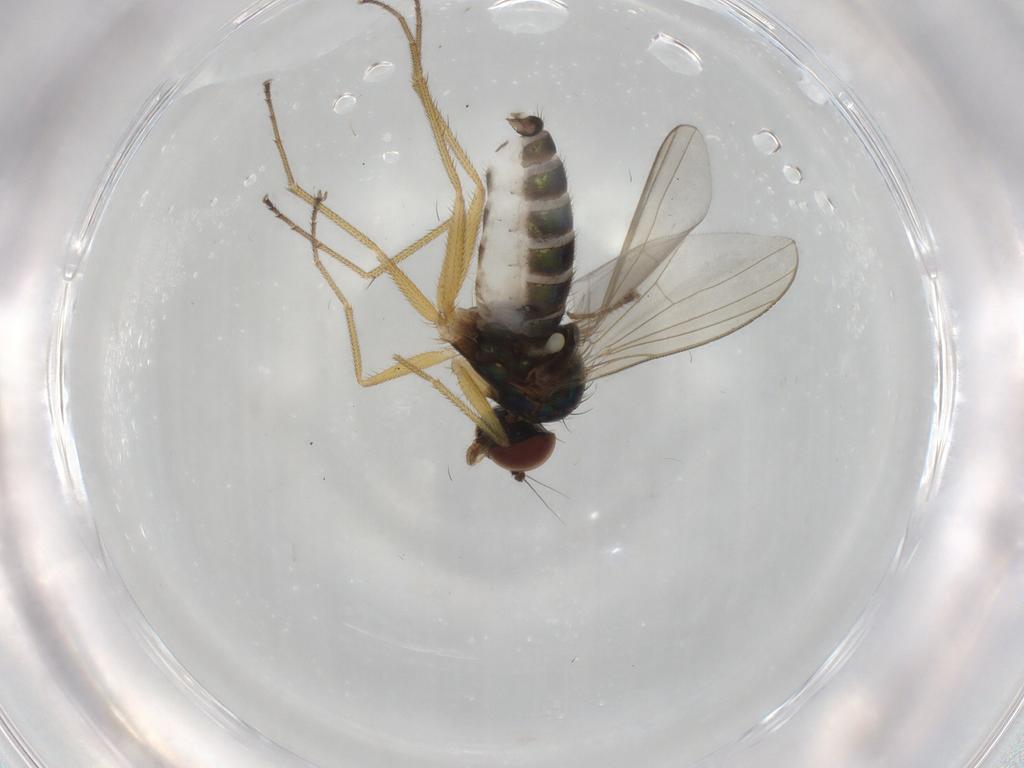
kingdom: Animalia
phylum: Arthropoda
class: Insecta
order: Diptera
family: Dolichopodidae
